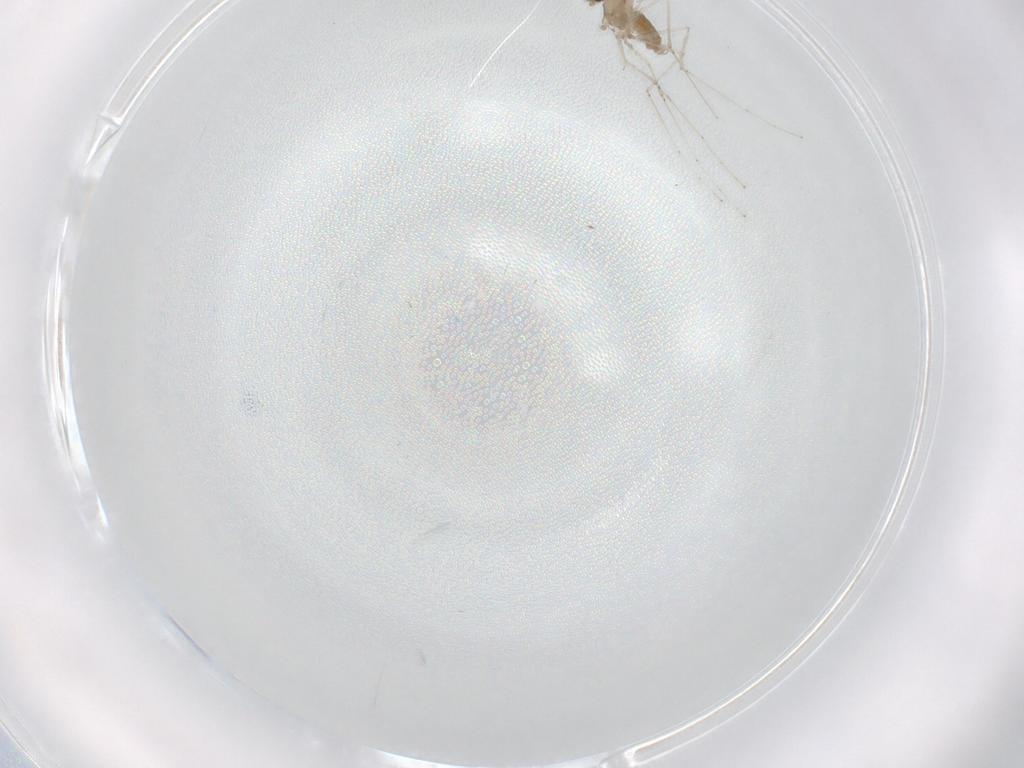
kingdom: Animalia
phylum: Arthropoda
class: Insecta
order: Diptera
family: Cecidomyiidae
